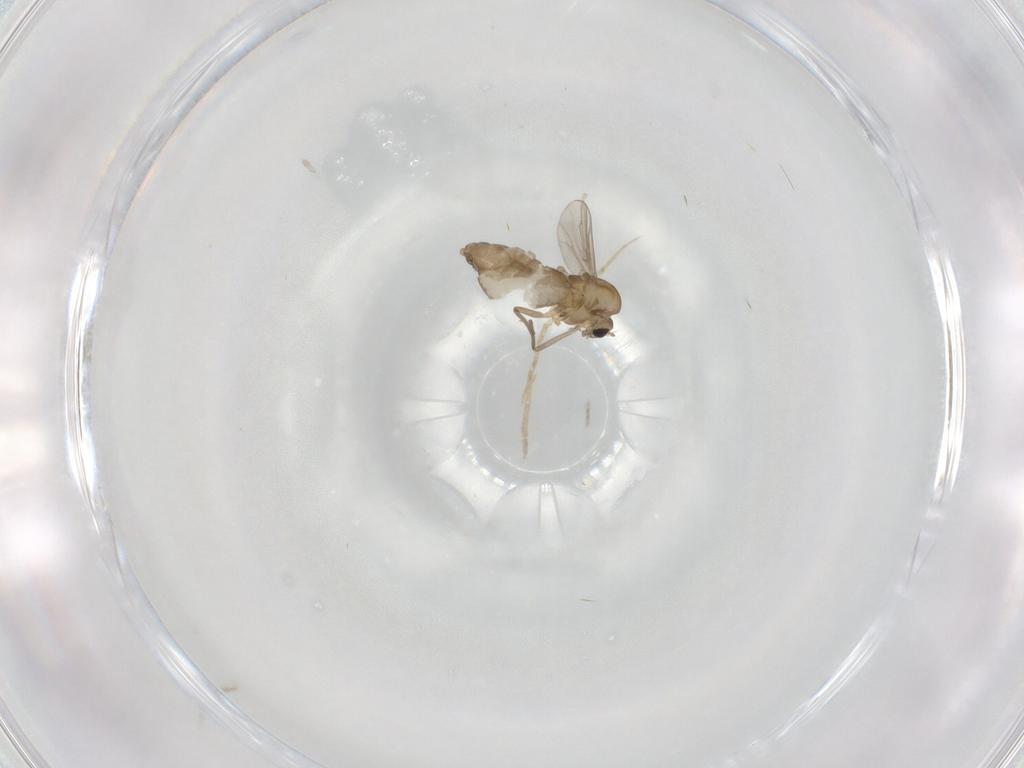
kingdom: Animalia
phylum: Arthropoda
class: Insecta
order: Diptera
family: Chironomidae
